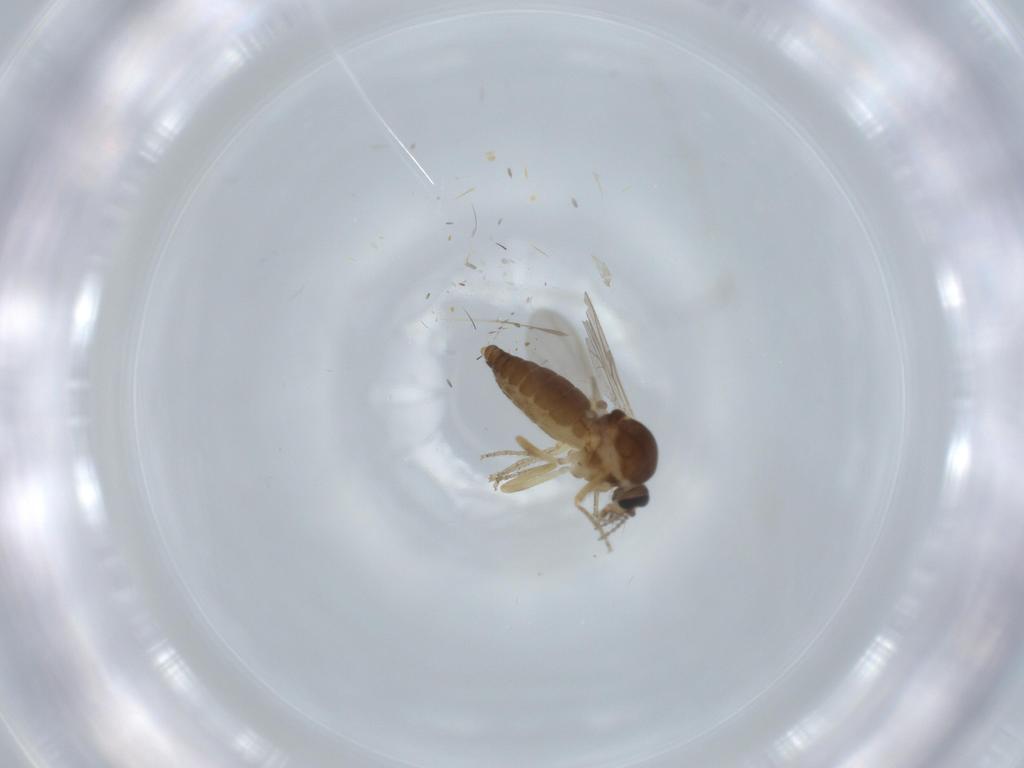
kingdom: Animalia
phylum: Arthropoda
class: Insecta
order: Diptera
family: Ceratopogonidae
